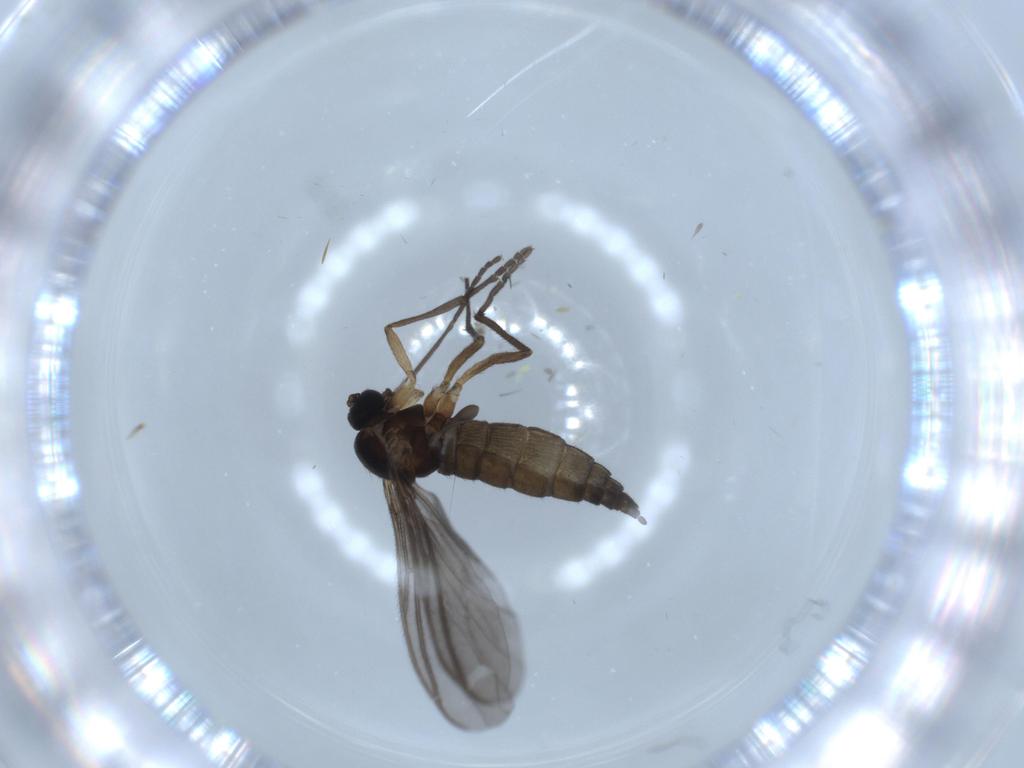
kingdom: Animalia
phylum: Arthropoda
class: Insecta
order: Diptera
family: Sciaridae
